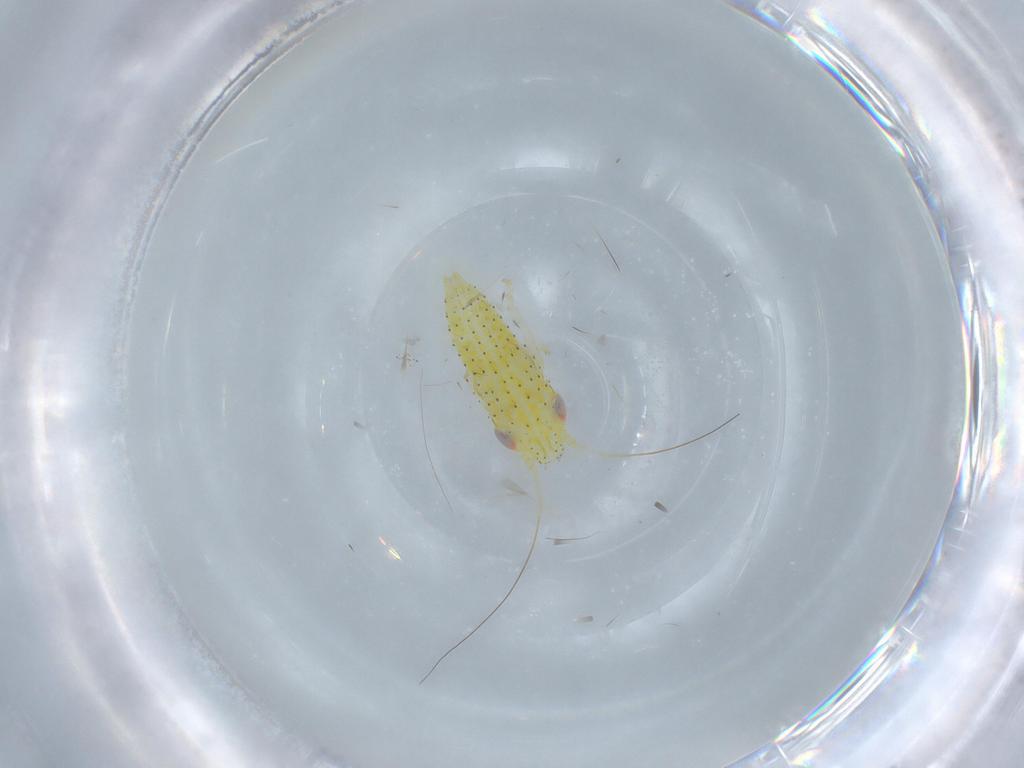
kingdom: Animalia
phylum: Arthropoda
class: Insecta
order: Hemiptera
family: Cicadellidae
